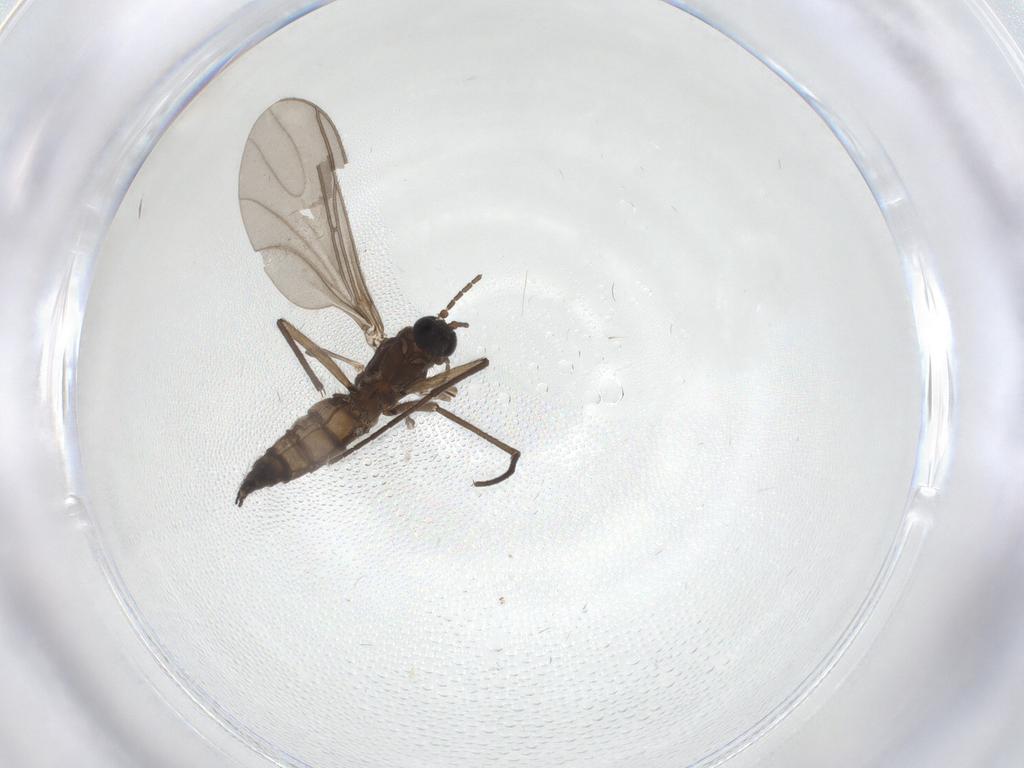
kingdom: Animalia
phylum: Arthropoda
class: Insecta
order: Diptera
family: Sciaridae
